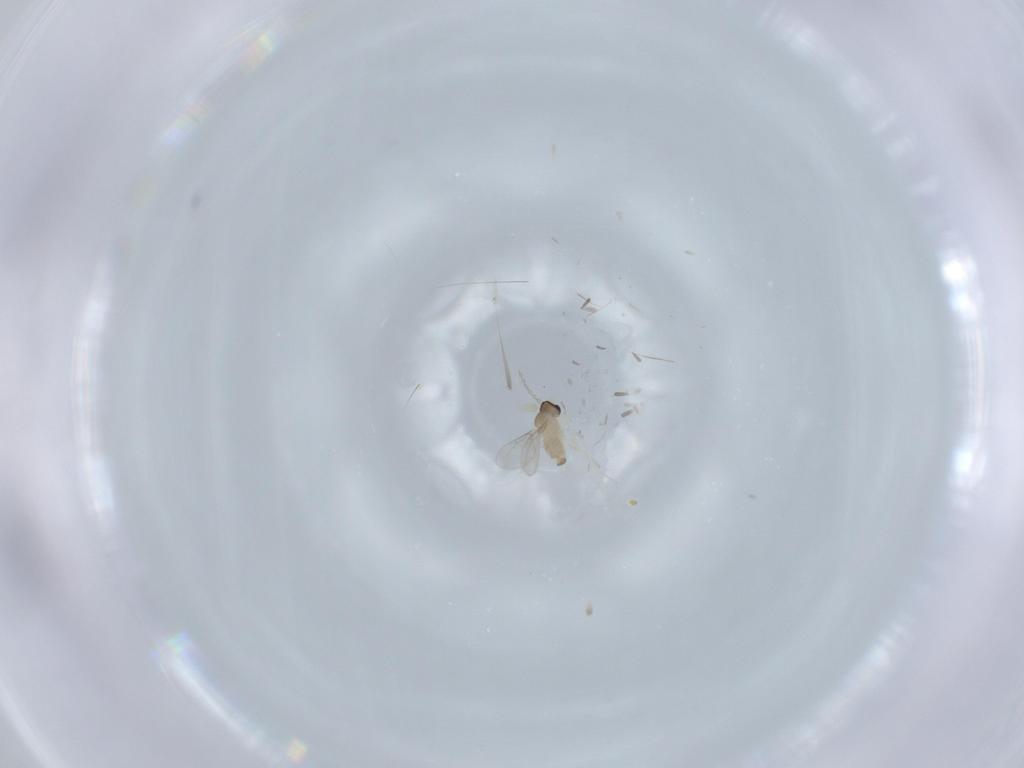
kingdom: Animalia
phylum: Arthropoda
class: Insecta
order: Diptera
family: Cecidomyiidae
